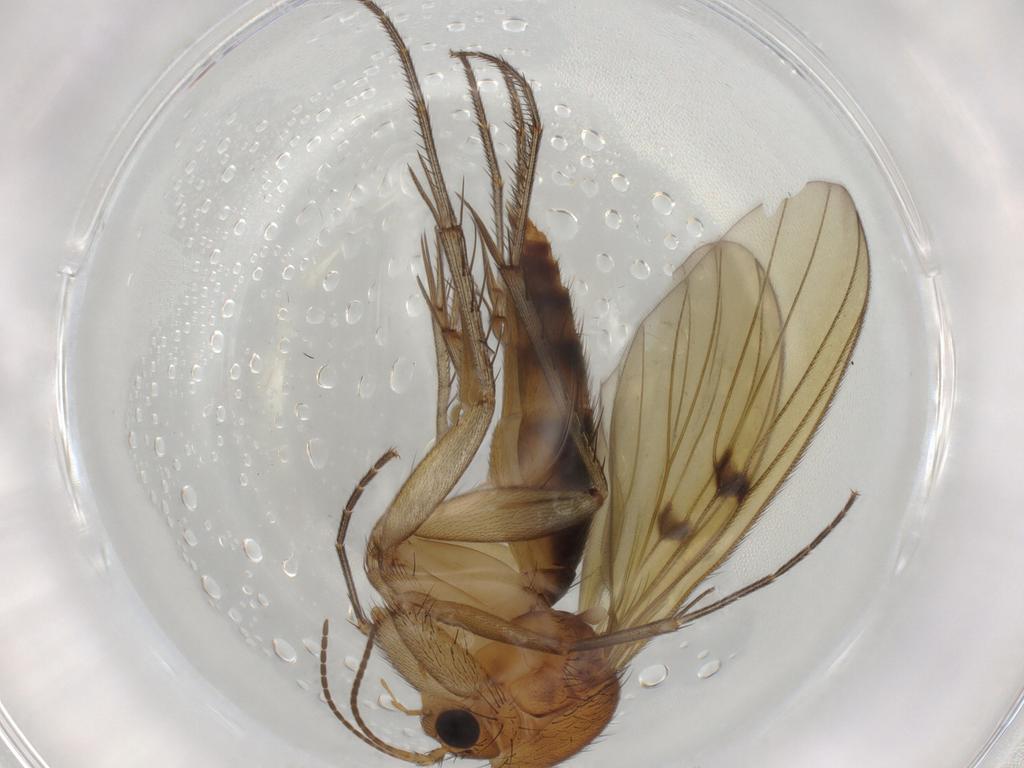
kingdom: Animalia
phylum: Arthropoda
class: Insecta
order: Diptera
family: Mycetophilidae
